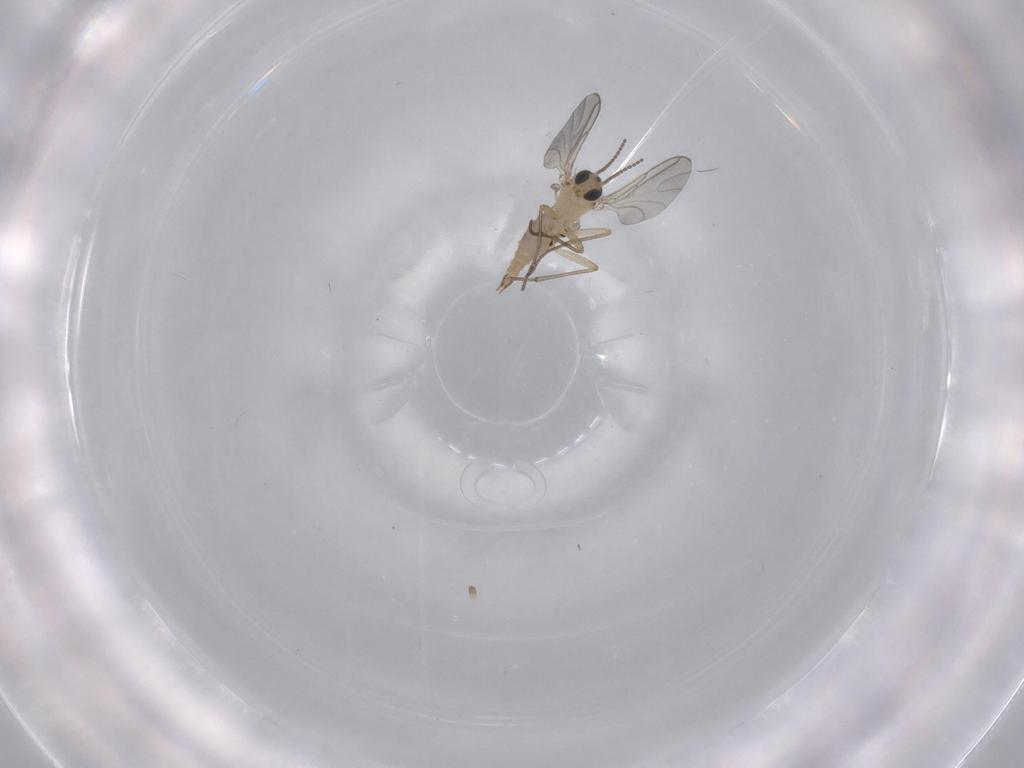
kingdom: Animalia
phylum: Arthropoda
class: Insecta
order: Diptera
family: Sciaridae
